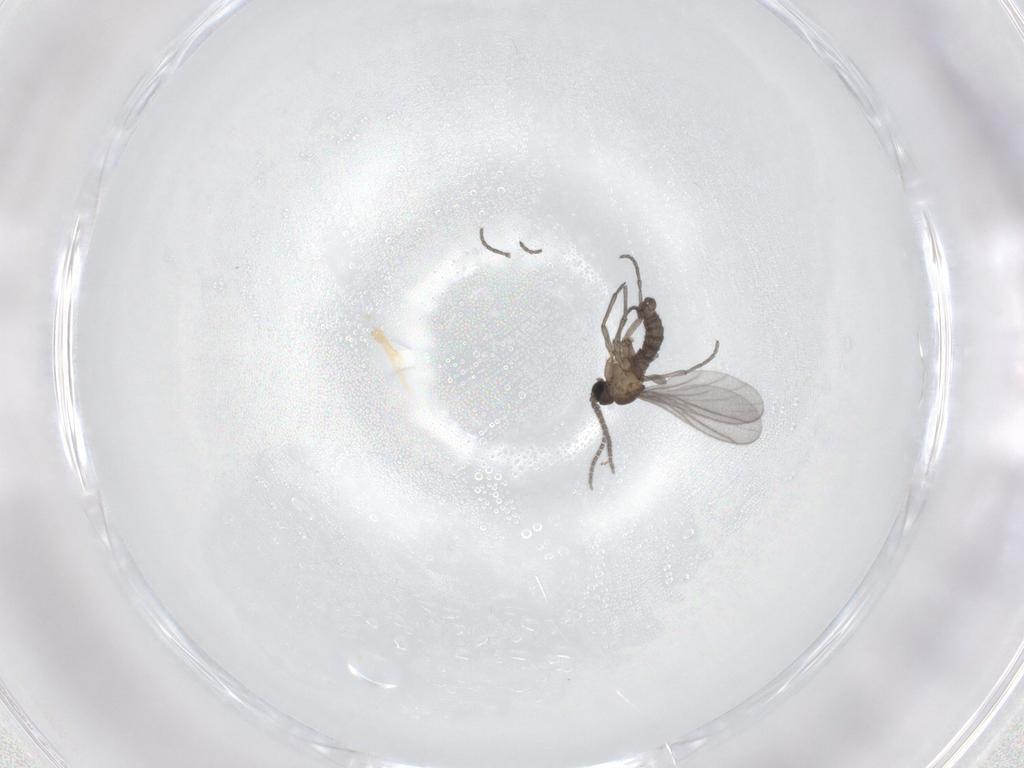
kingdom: Animalia
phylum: Arthropoda
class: Insecta
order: Diptera
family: Sciaridae
